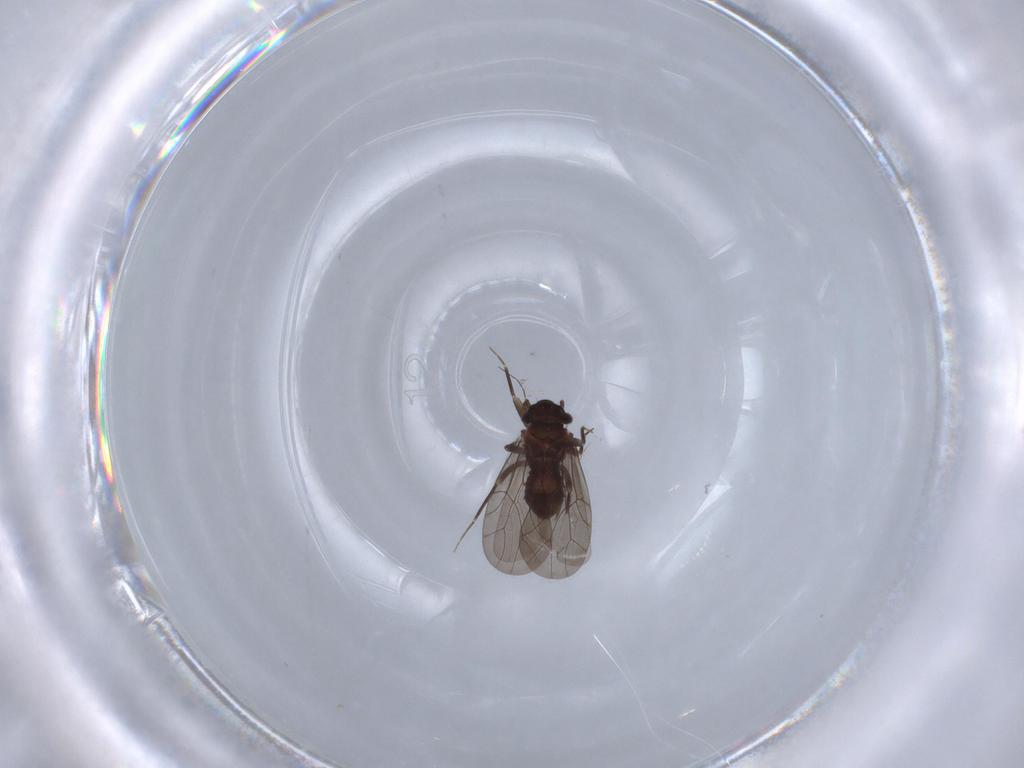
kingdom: Animalia
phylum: Arthropoda
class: Insecta
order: Psocodea
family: Lepidopsocidae
